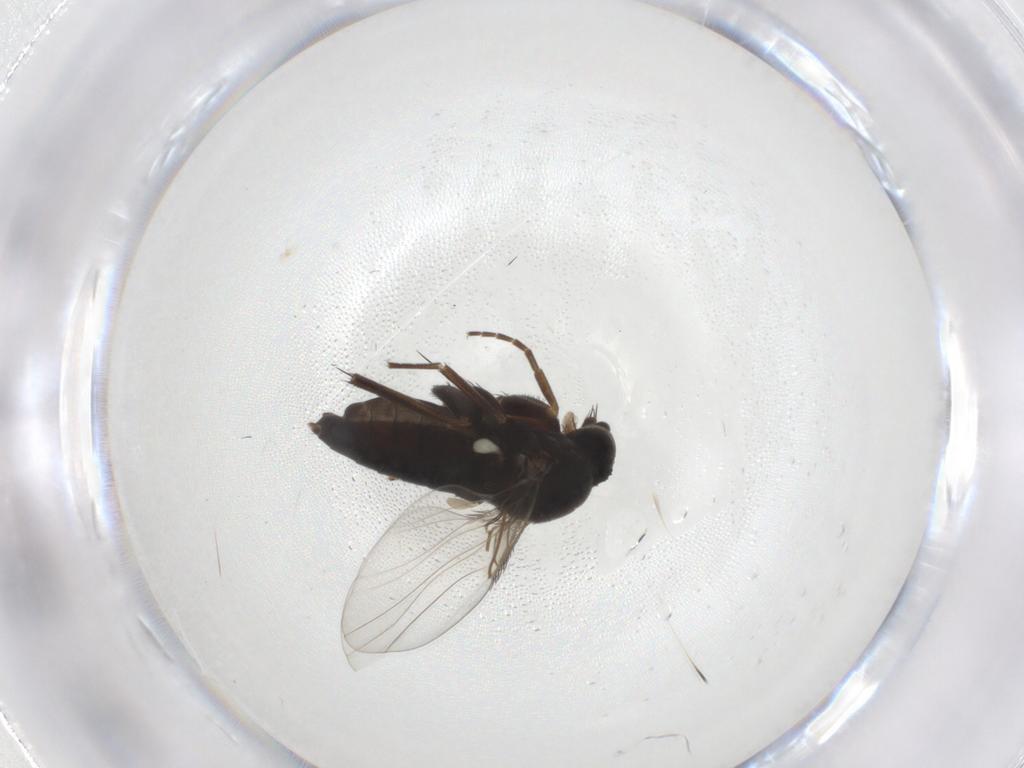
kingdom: Animalia
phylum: Arthropoda
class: Insecta
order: Diptera
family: Phoridae
